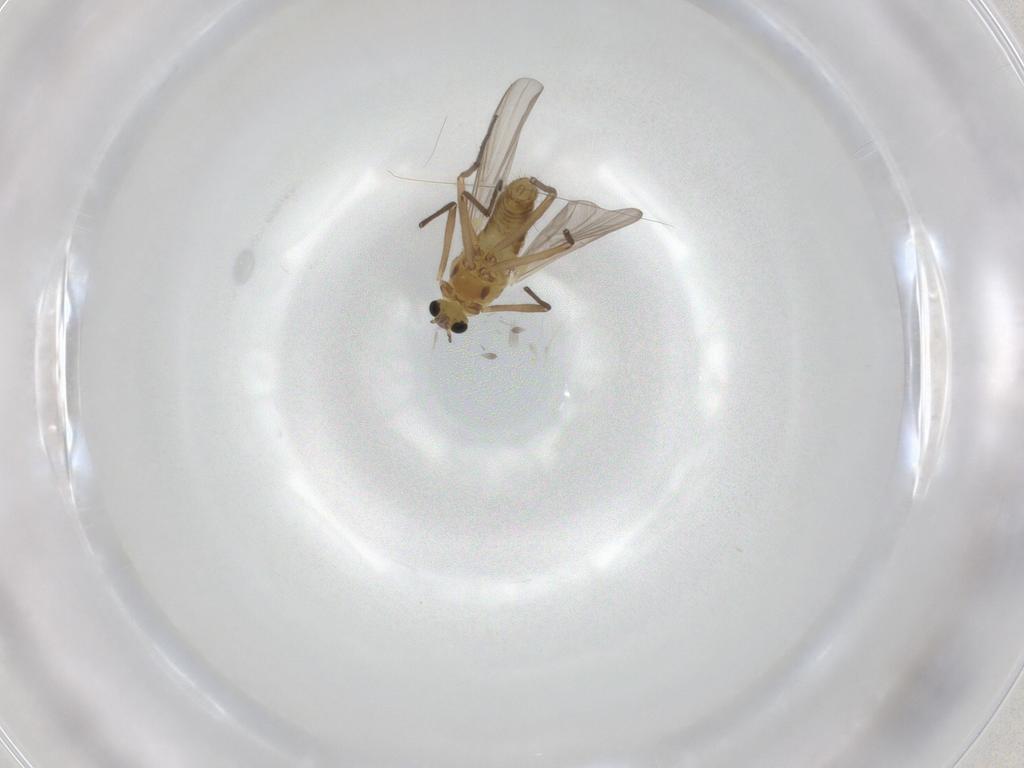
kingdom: Animalia
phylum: Arthropoda
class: Insecta
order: Diptera
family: Chironomidae
